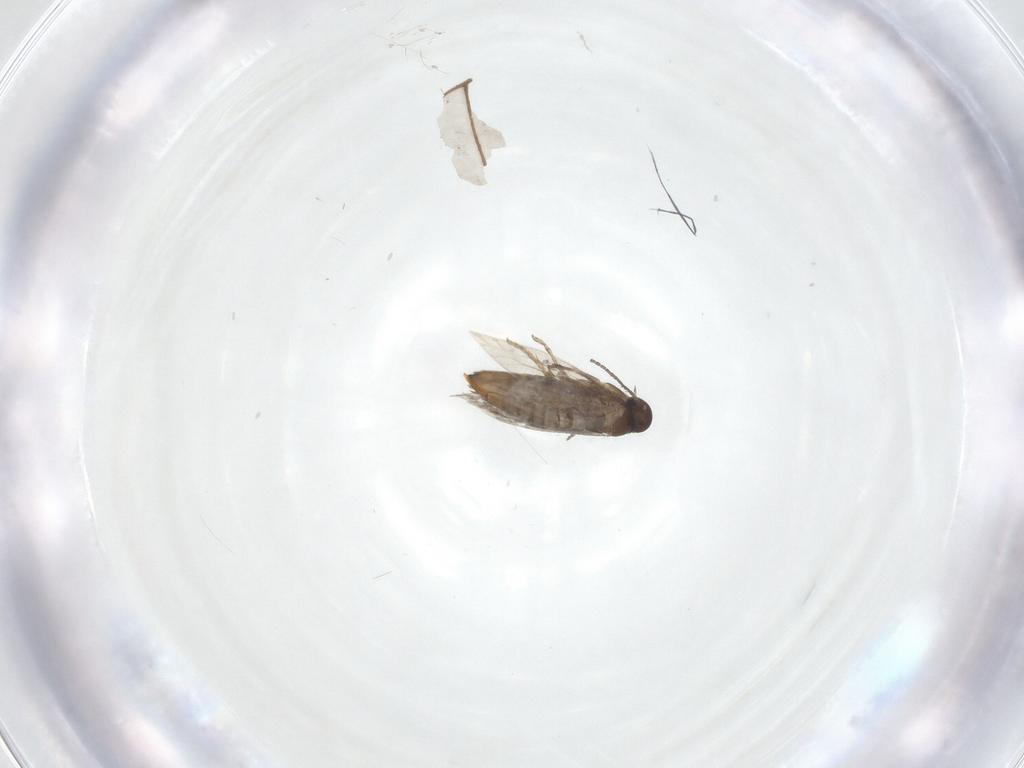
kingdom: Animalia
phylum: Arthropoda
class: Insecta
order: Lepidoptera
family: Heliozelidae
